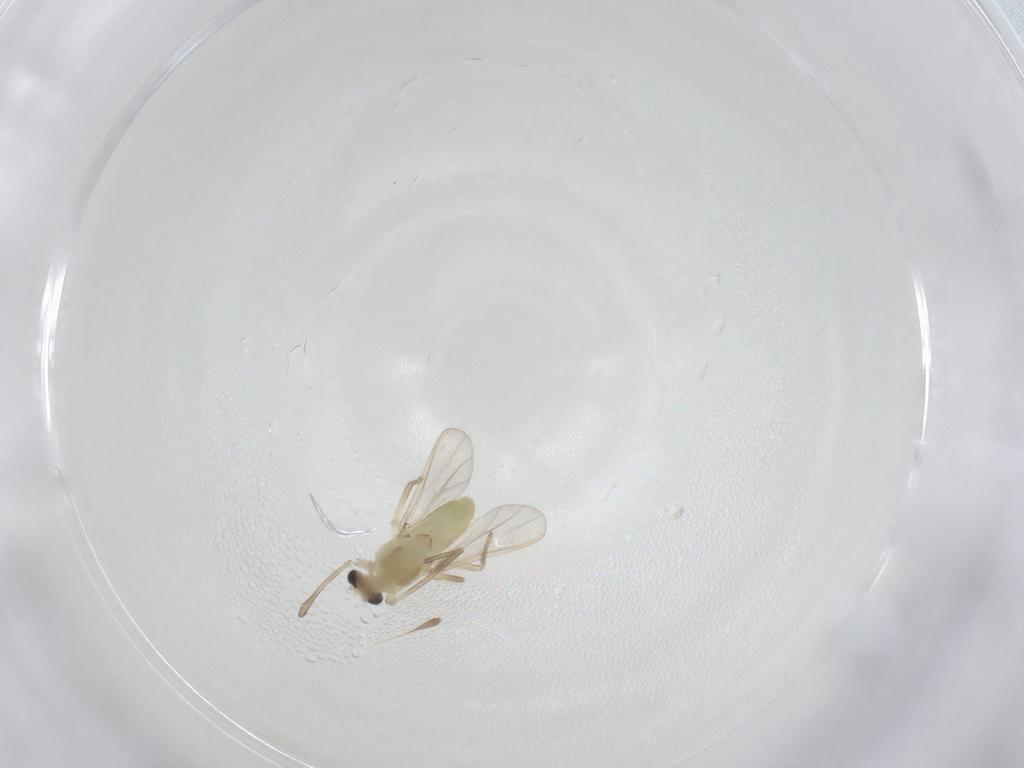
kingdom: Animalia
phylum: Arthropoda
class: Insecta
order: Diptera
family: Chironomidae
